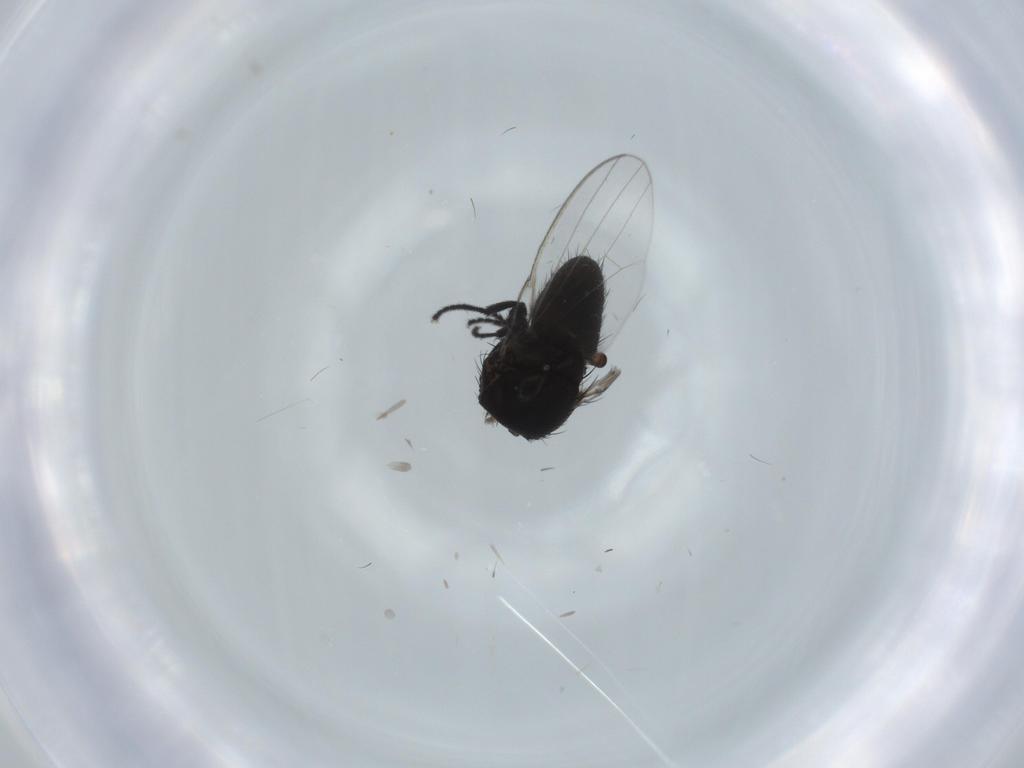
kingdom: Animalia
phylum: Arthropoda
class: Insecta
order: Diptera
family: Milichiidae
